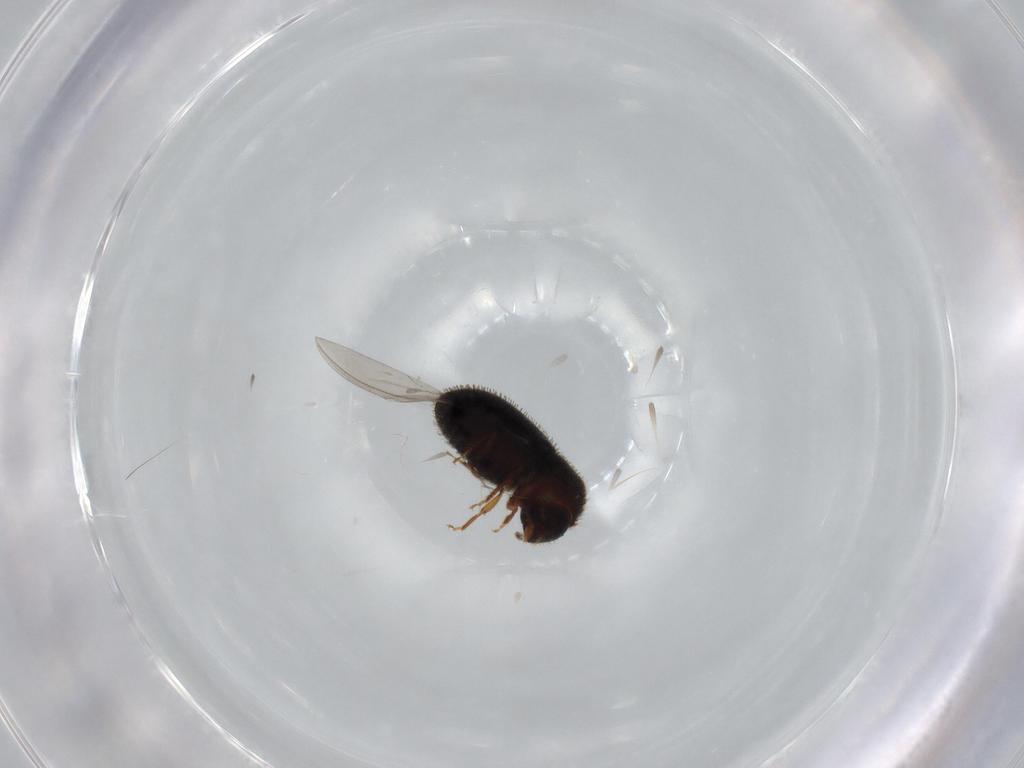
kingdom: Animalia
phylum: Arthropoda
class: Insecta
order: Coleoptera
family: Curculionidae
